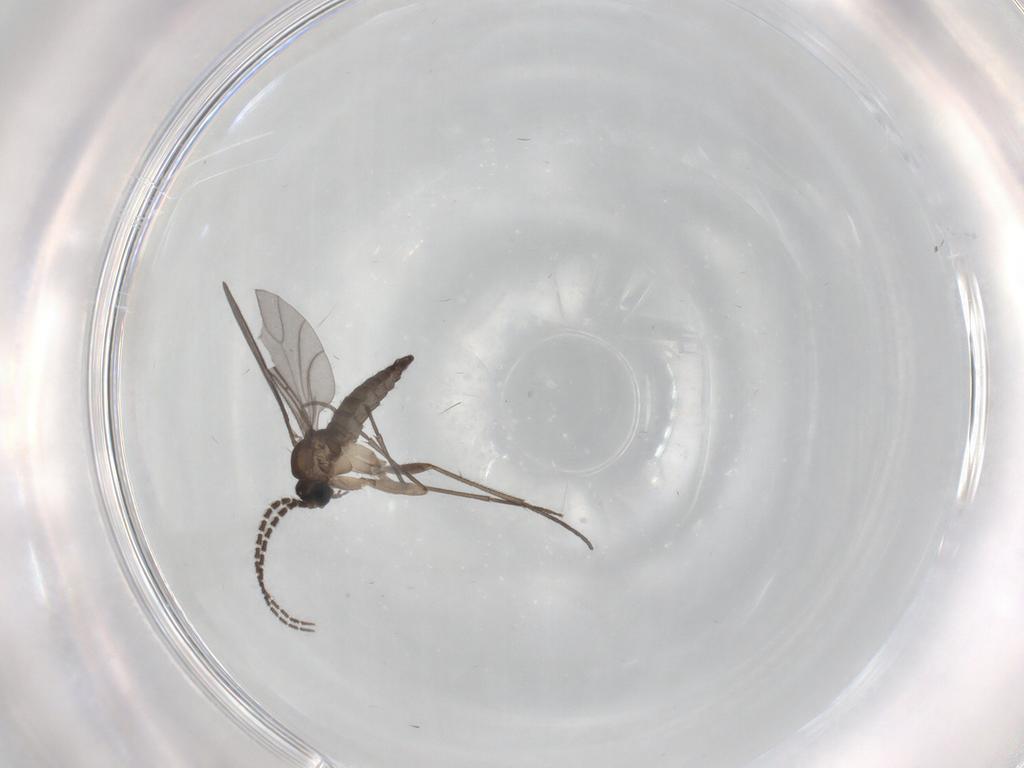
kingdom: Animalia
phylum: Arthropoda
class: Insecta
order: Diptera
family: Sciaridae
